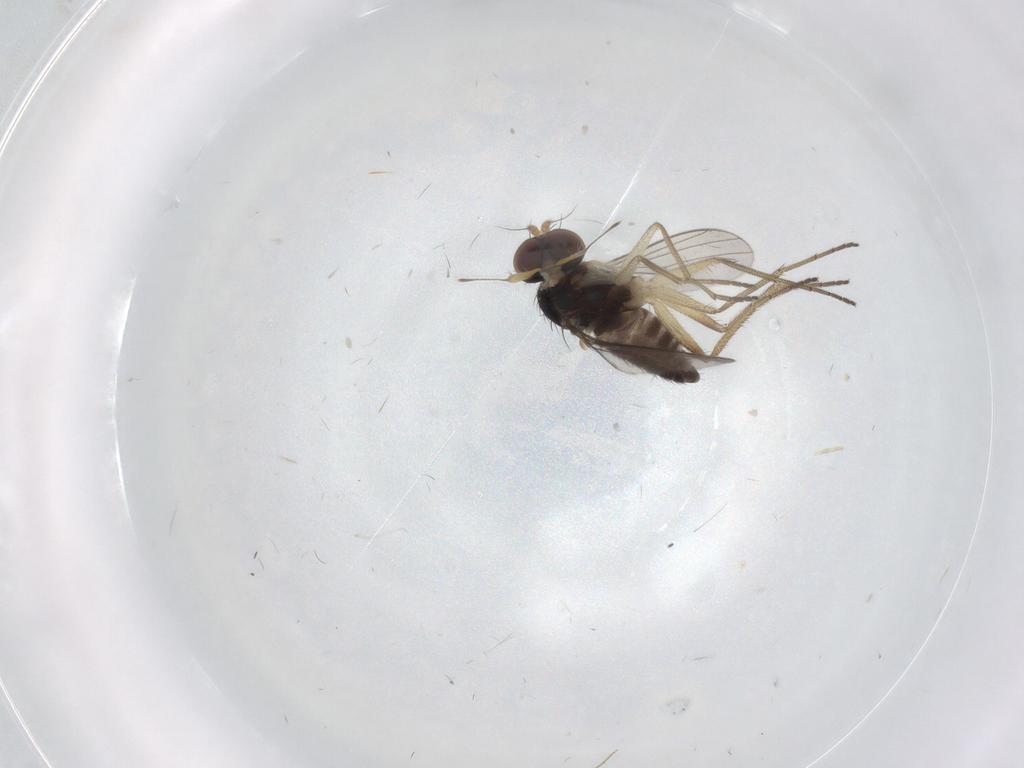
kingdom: Animalia
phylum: Arthropoda
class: Insecta
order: Diptera
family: Dolichopodidae
